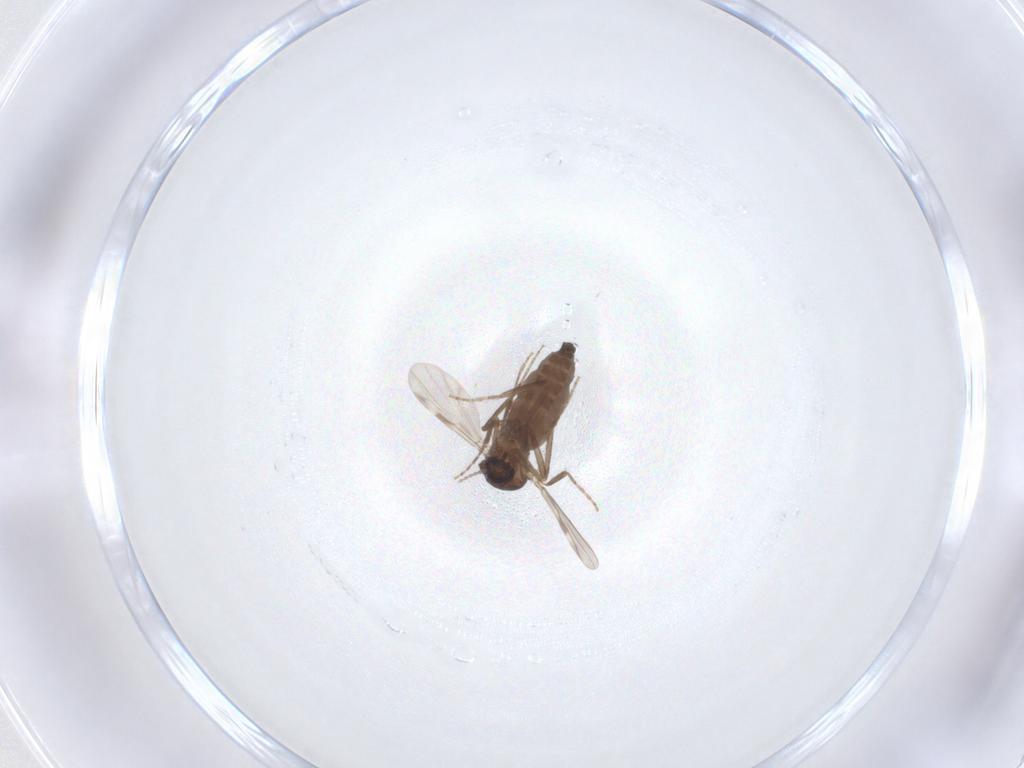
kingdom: Animalia
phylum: Arthropoda
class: Insecta
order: Diptera
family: Ceratopogonidae
